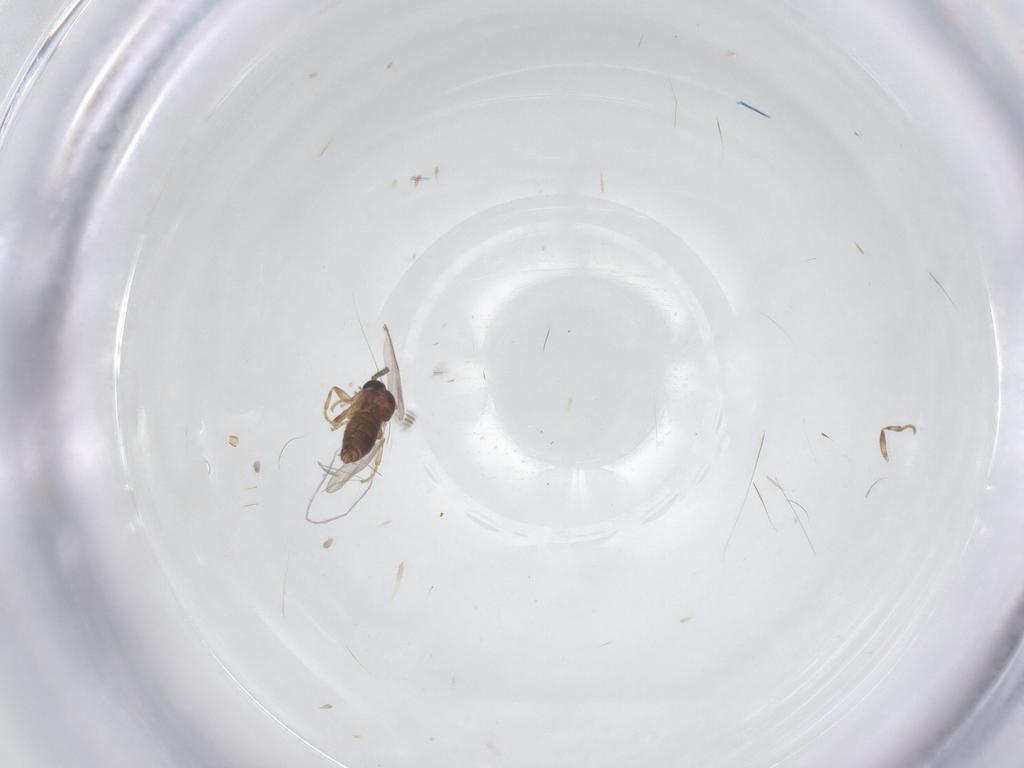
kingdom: Animalia
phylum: Arthropoda
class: Insecta
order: Diptera
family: Scatopsidae
